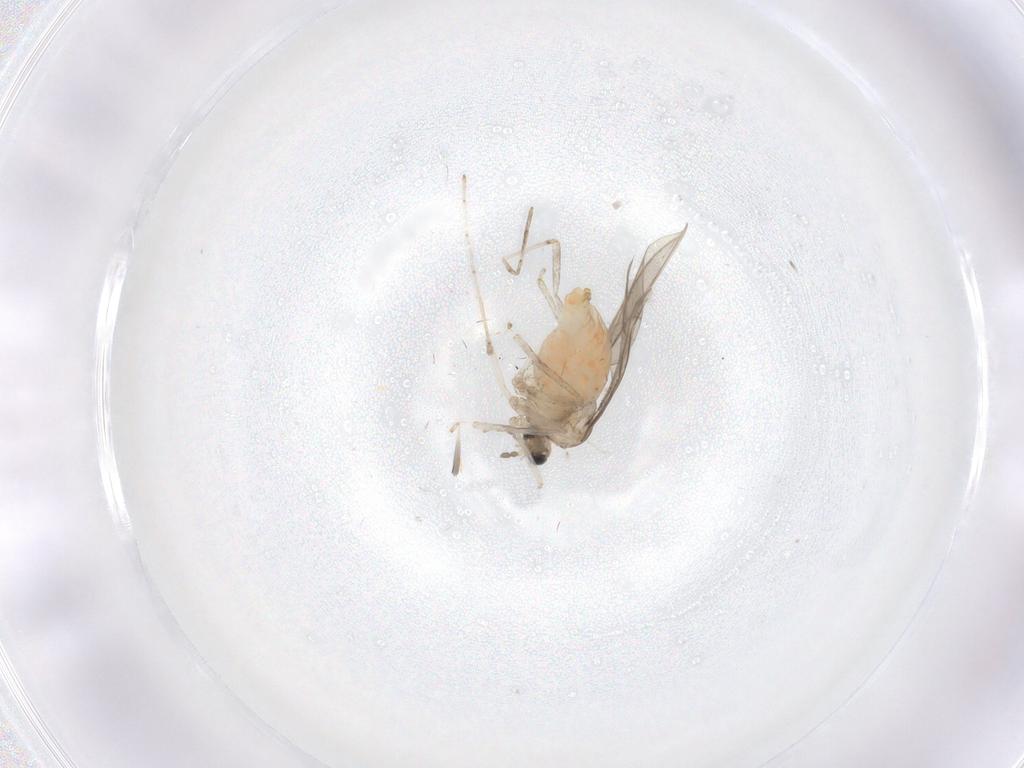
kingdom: Animalia
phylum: Arthropoda
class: Insecta
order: Diptera
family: Cecidomyiidae
